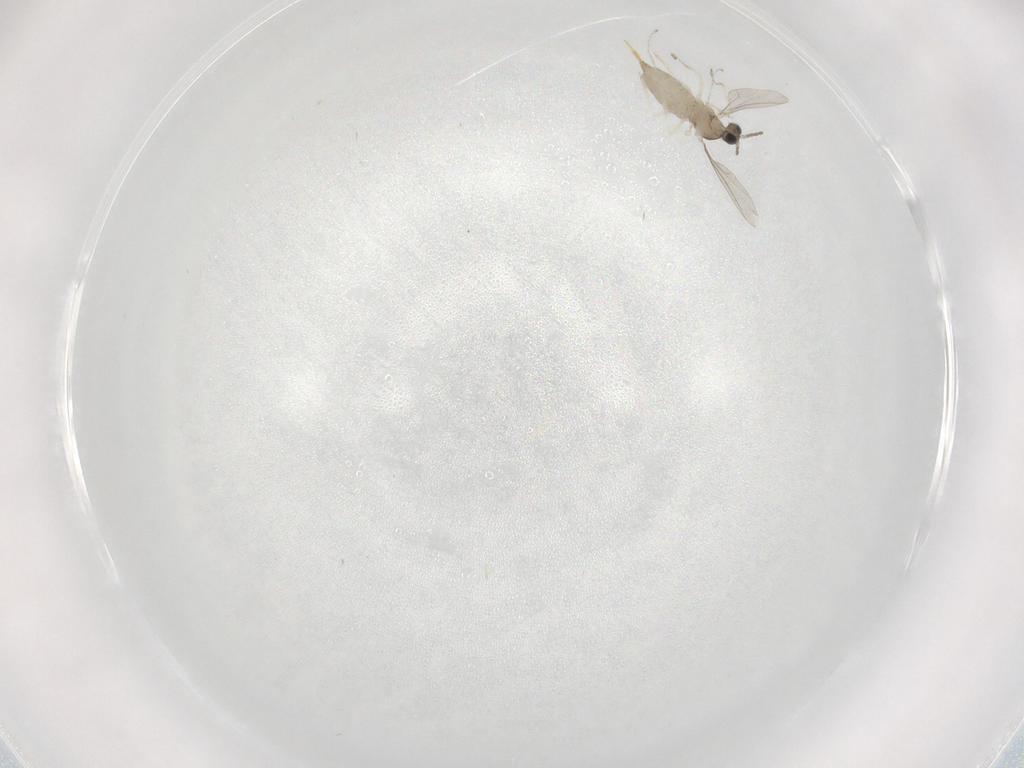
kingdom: Animalia
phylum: Arthropoda
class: Insecta
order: Diptera
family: Cecidomyiidae
